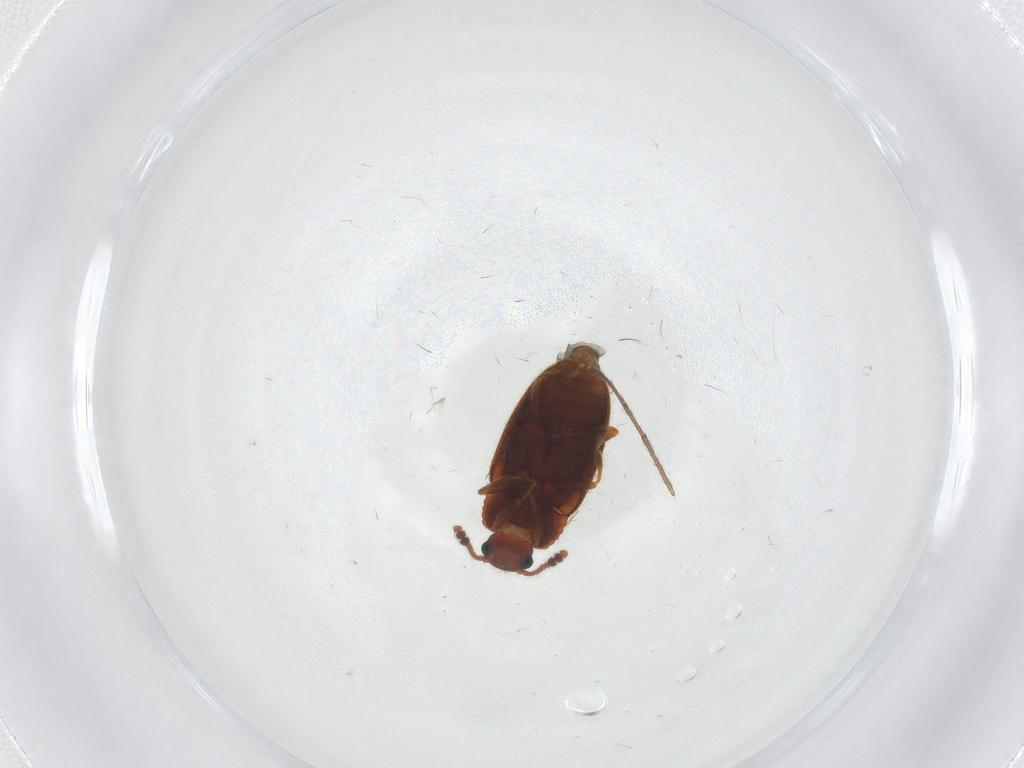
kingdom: Animalia
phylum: Arthropoda
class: Insecta
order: Coleoptera
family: Erotylidae
